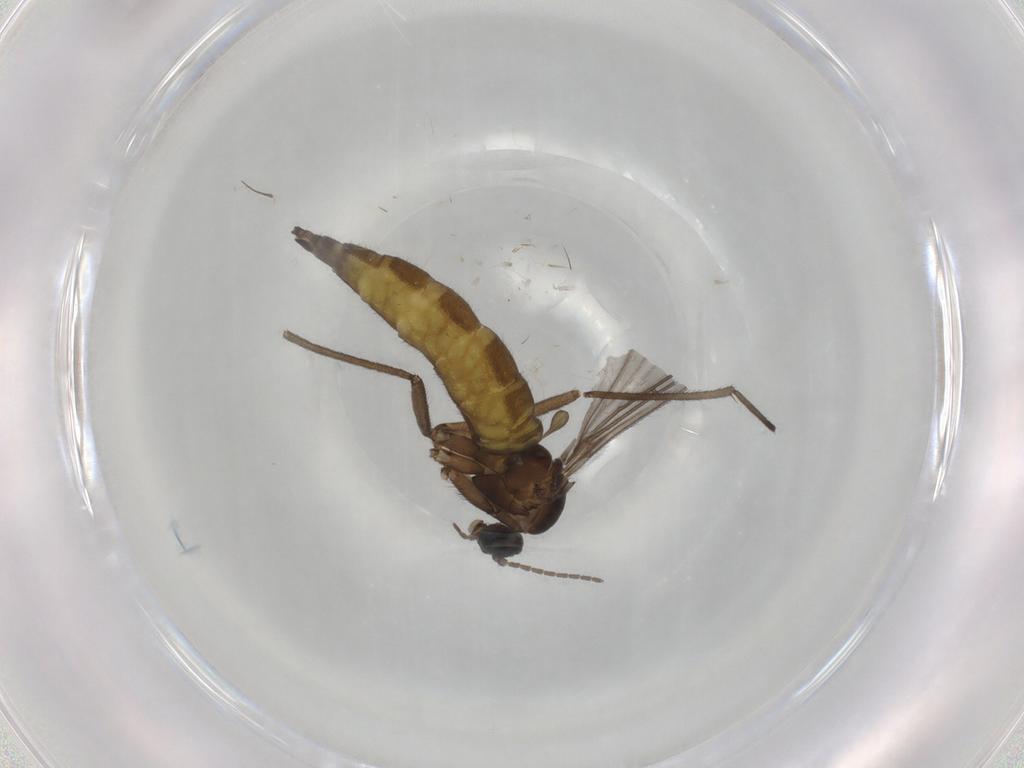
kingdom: Animalia
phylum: Arthropoda
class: Insecta
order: Diptera
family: Sciaridae
